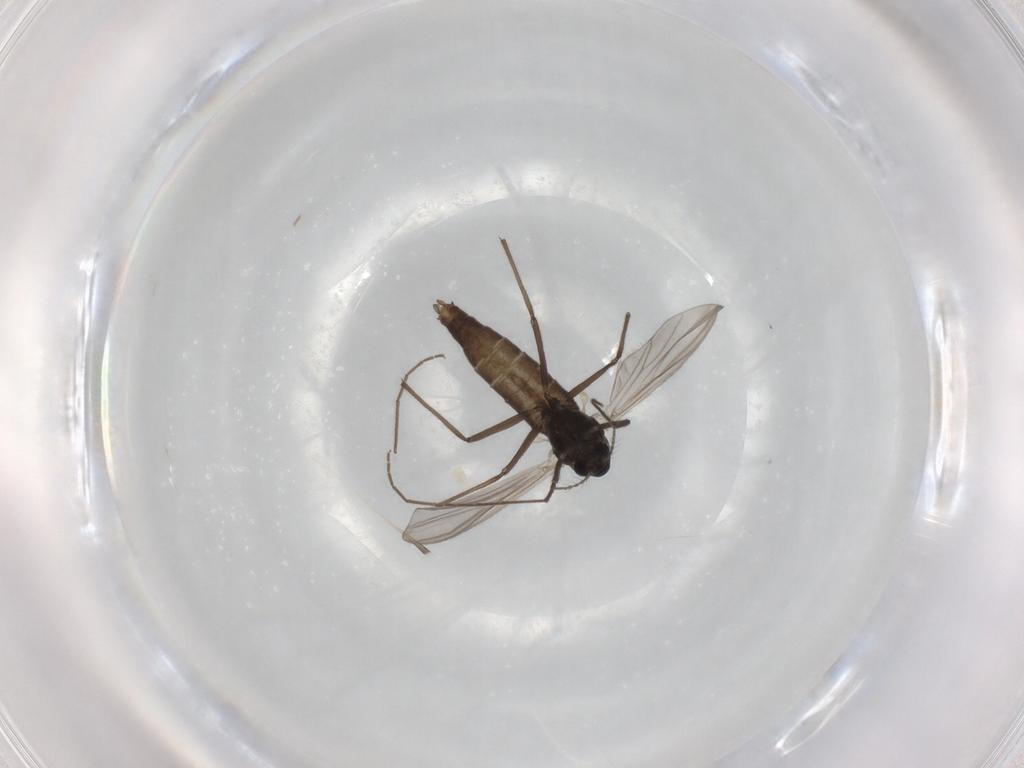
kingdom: Animalia
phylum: Arthropoda
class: Insecta
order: Diptera
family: Chironomidae
